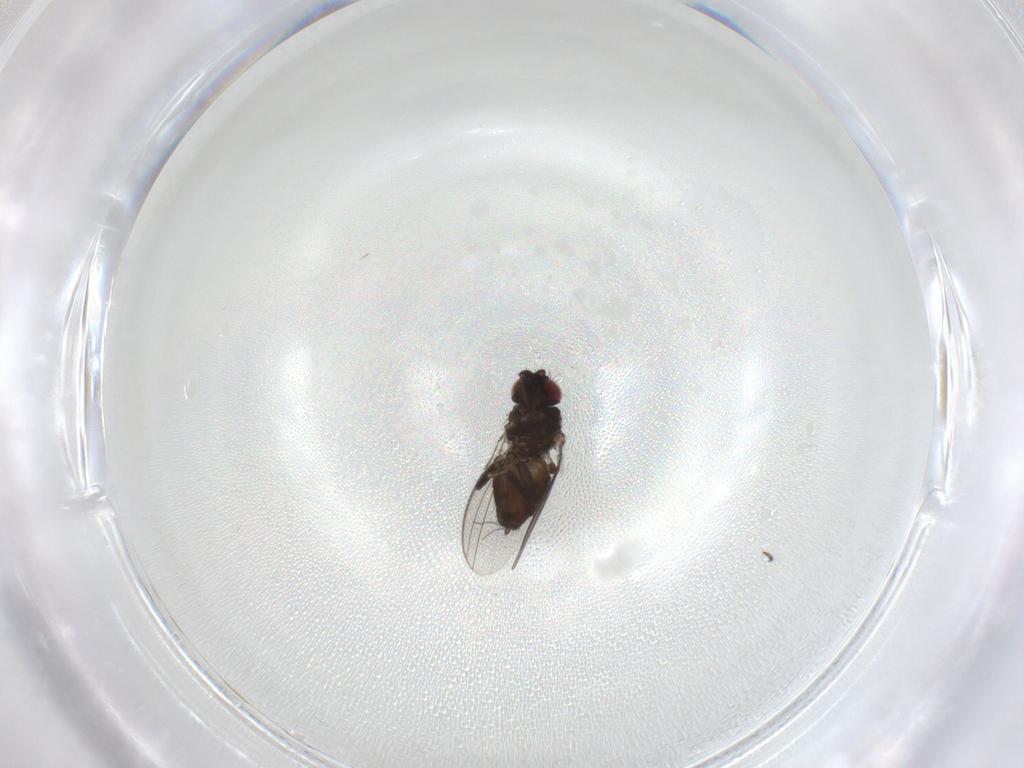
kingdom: Animalia
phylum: Arthropoda
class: Insecta
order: Diptera
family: Milichiidae
